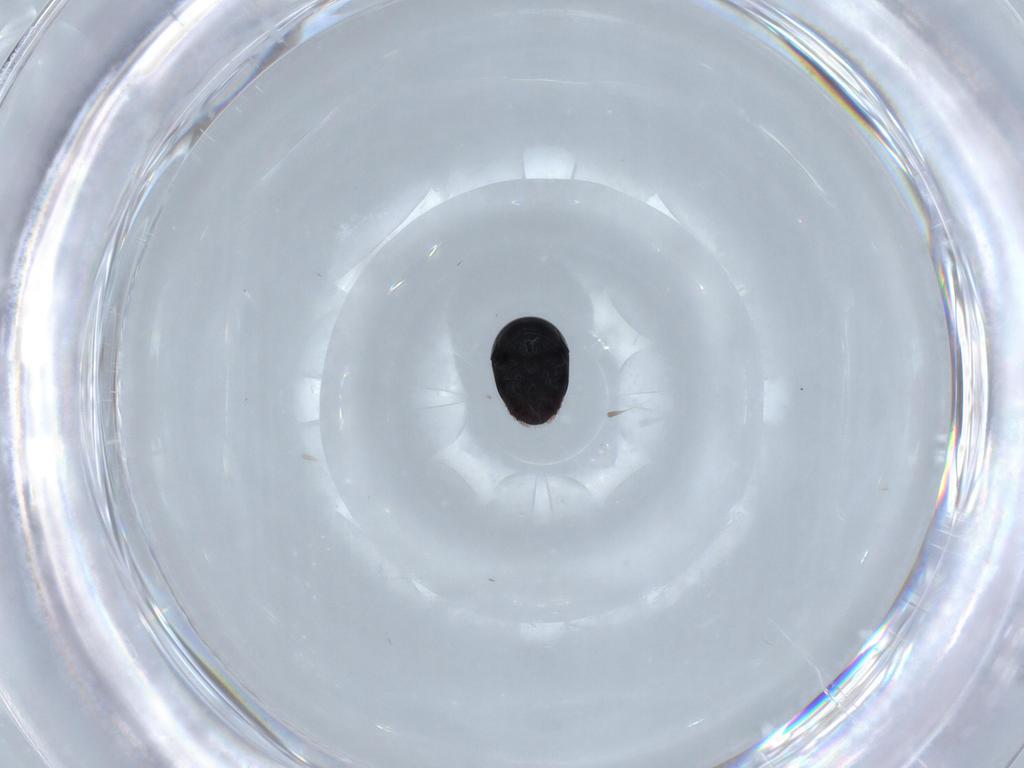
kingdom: Animalia
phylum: Arthropoda
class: Insecta
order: Coleoptera
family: Cybocephalidae
